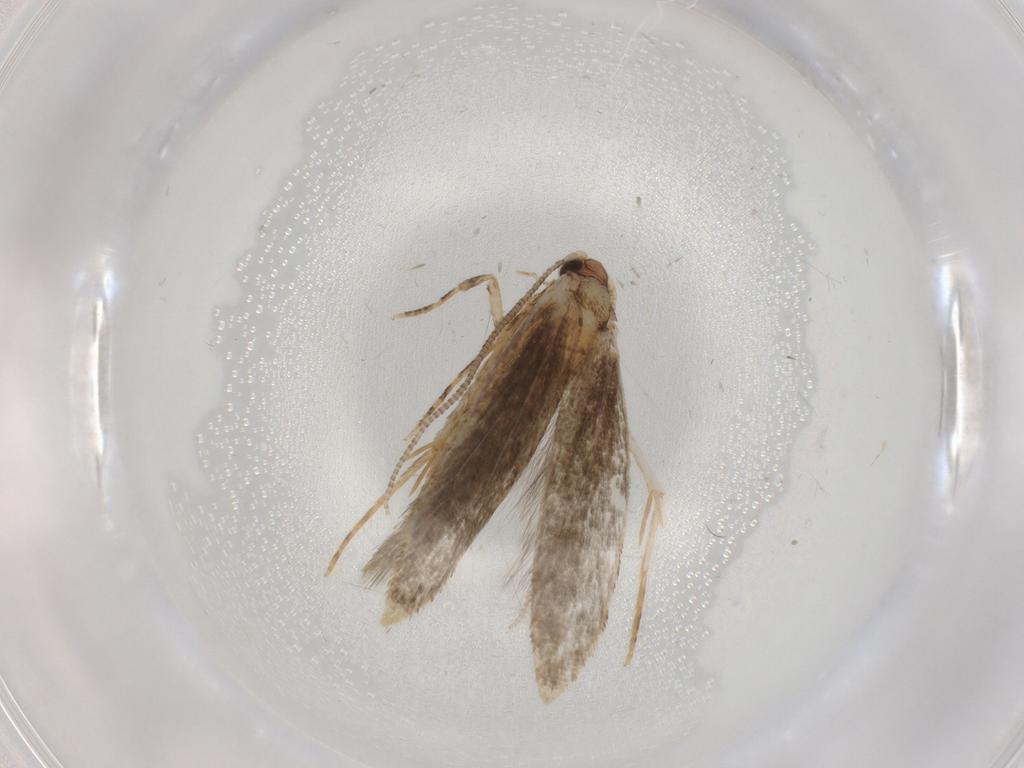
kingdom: Animalia
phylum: Arthropoda
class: Insecta
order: Lepidoptera
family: Tineidae
